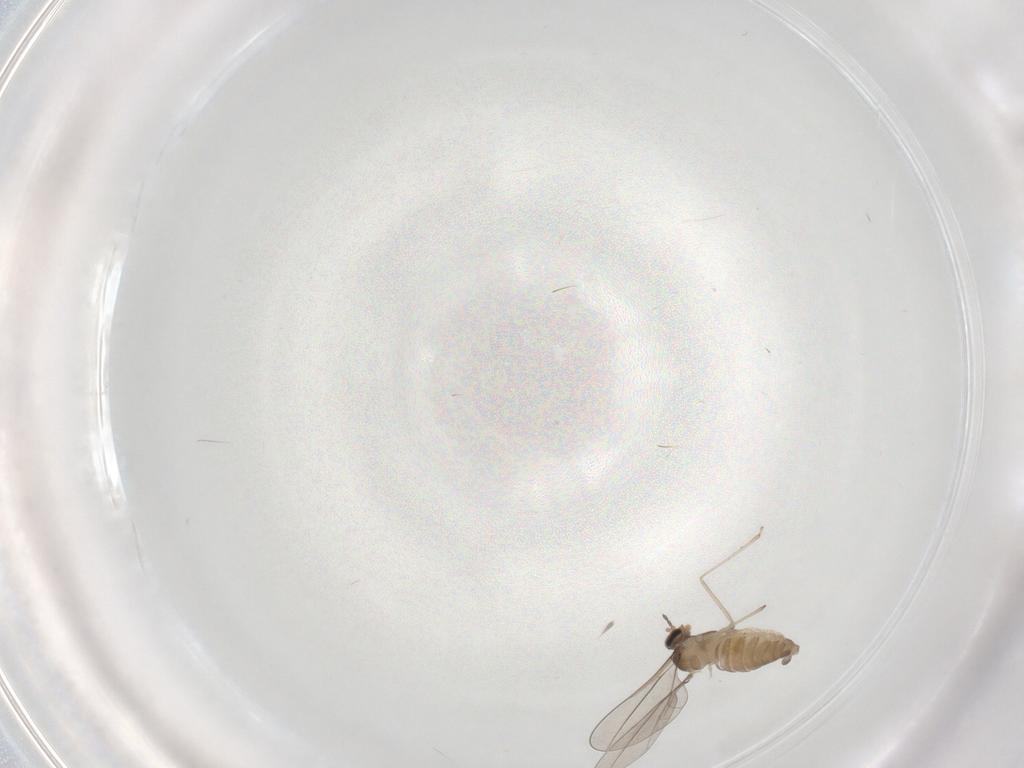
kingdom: Animalia
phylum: Arthropoda
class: Insecta
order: Diptera
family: Cecidomyiidae
